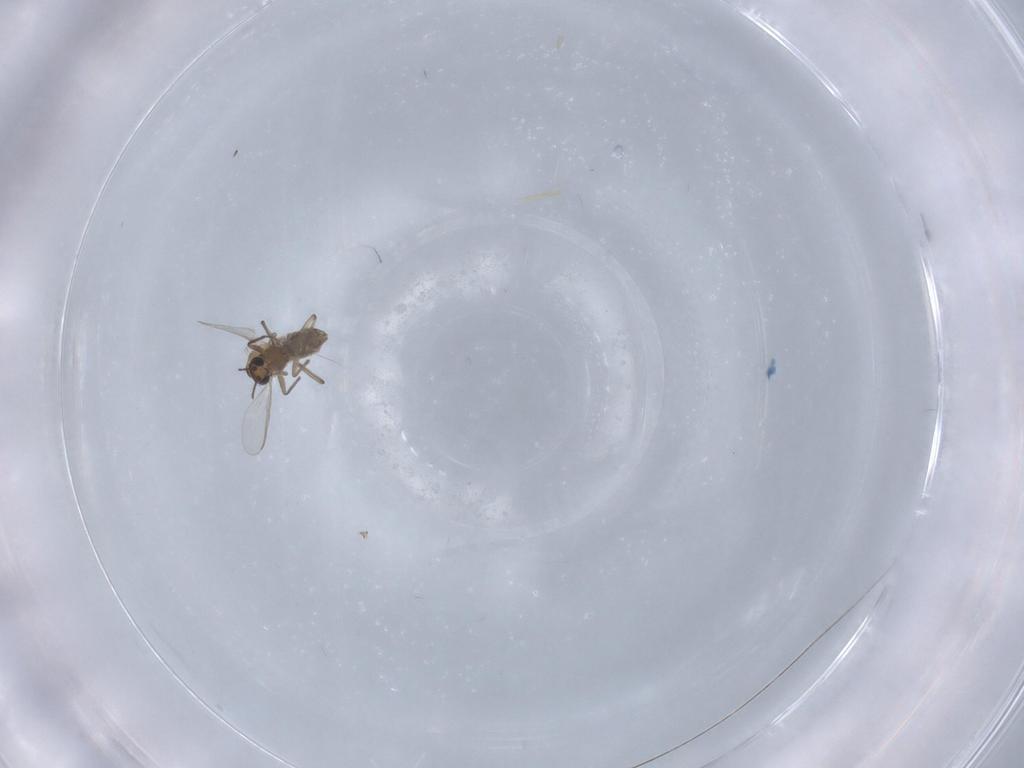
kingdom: Animalia
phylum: Arthropoda
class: Insecta
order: Diptera
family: Chironomidae
